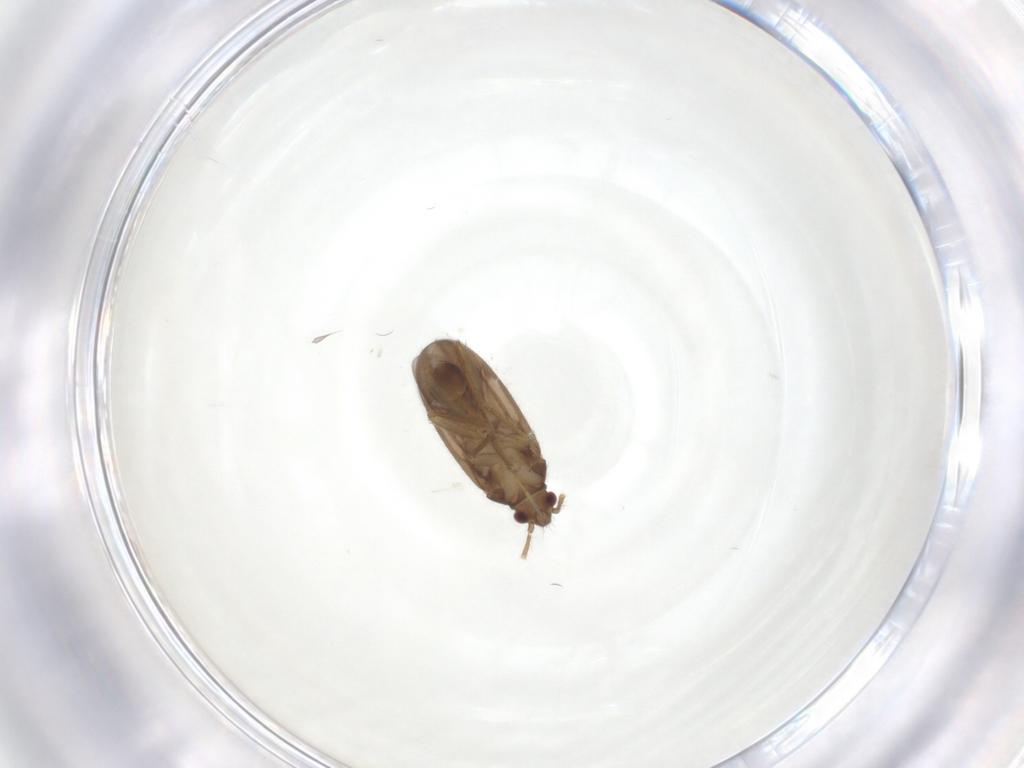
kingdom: Animalia
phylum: Arthropoda
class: Insecta
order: Hemiptera
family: Ceratocombidae
